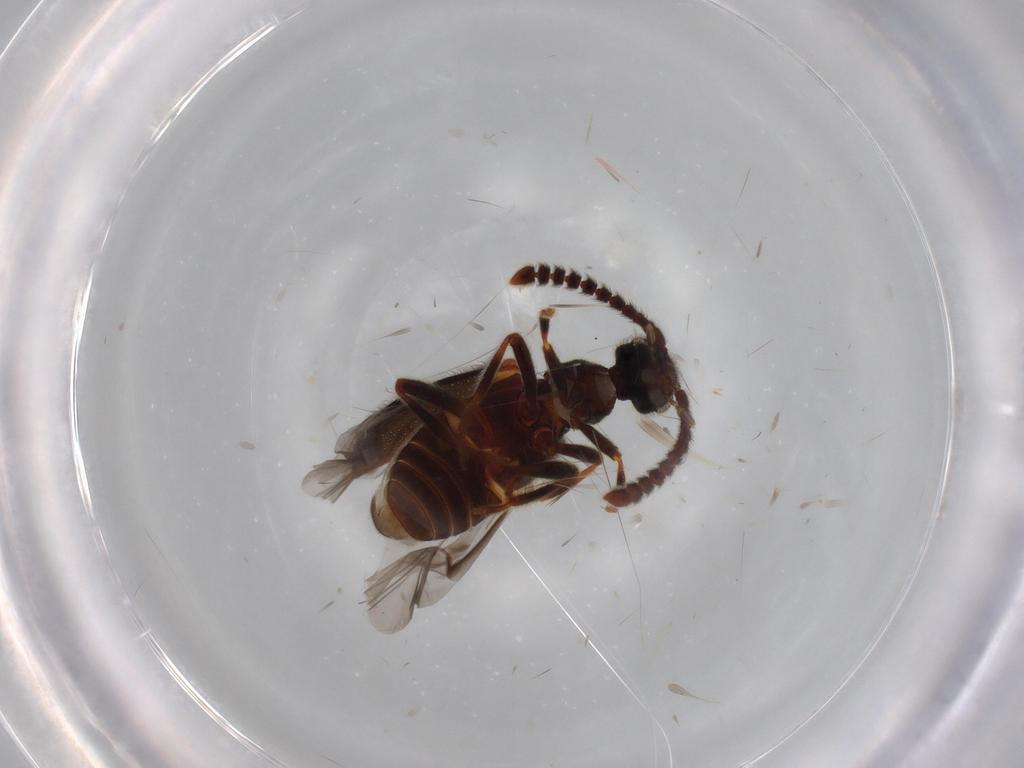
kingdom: Animalia
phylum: Arthropoda
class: Insecta
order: Coleoptera
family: Aderidae
